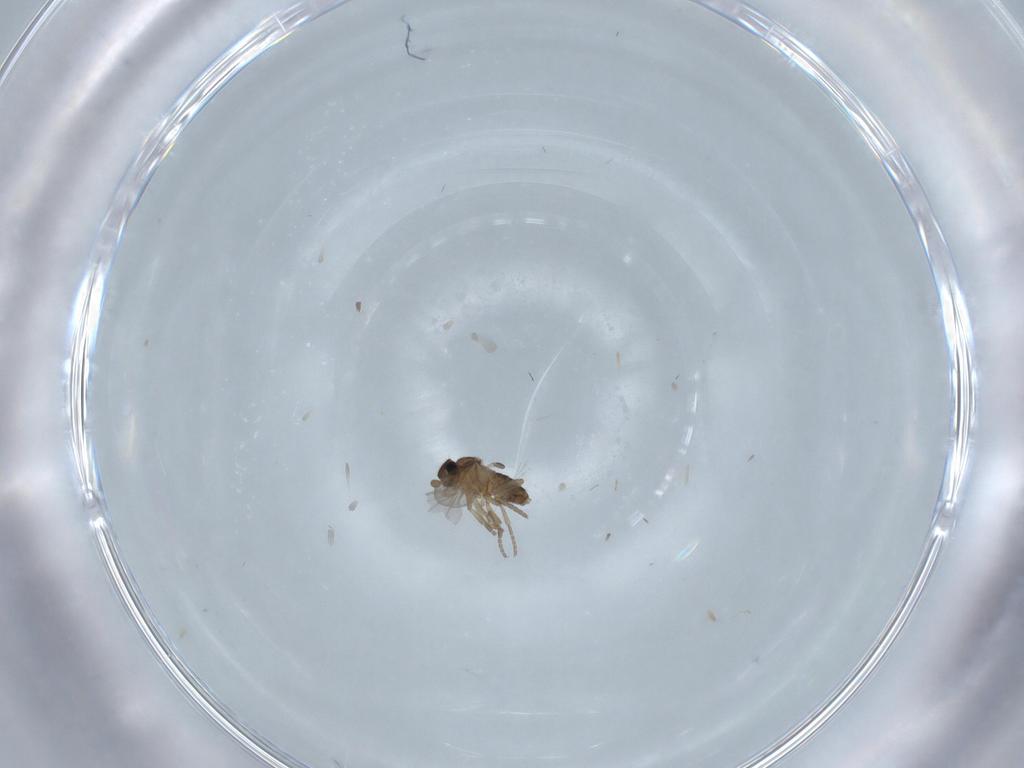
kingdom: Animalia
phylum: Arthropoda
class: Insecta
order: Diptera
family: Phoridae
